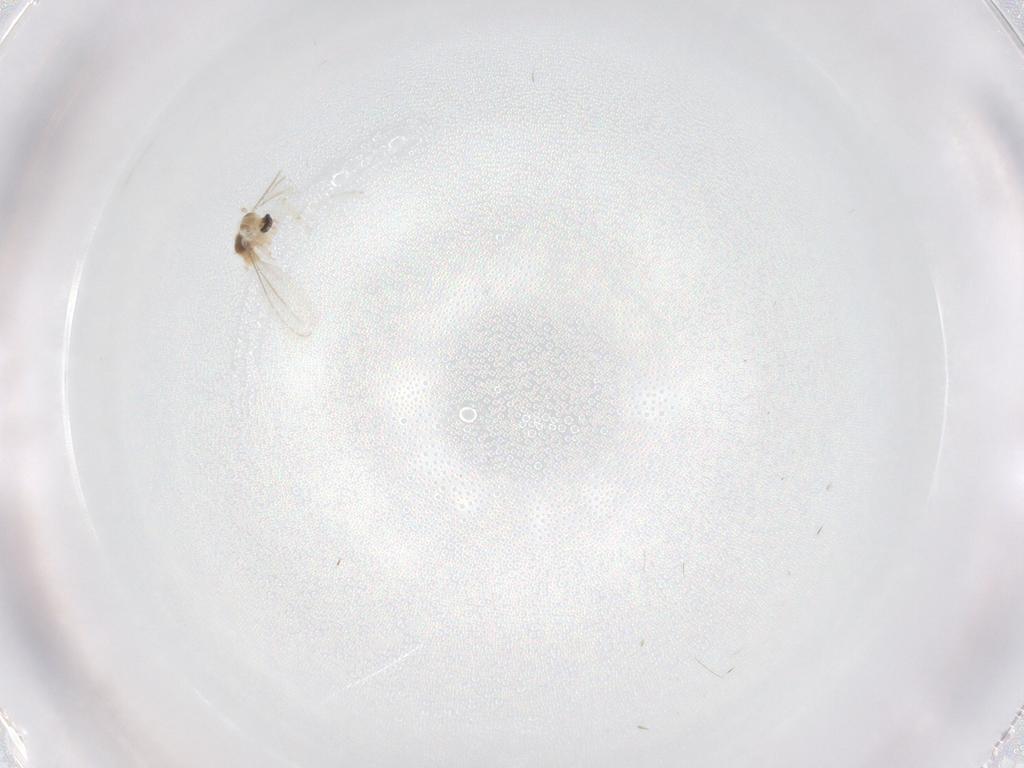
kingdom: Animalia
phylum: Arthropoda
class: Insecta
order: Diptera
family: Cecidomyiidae
